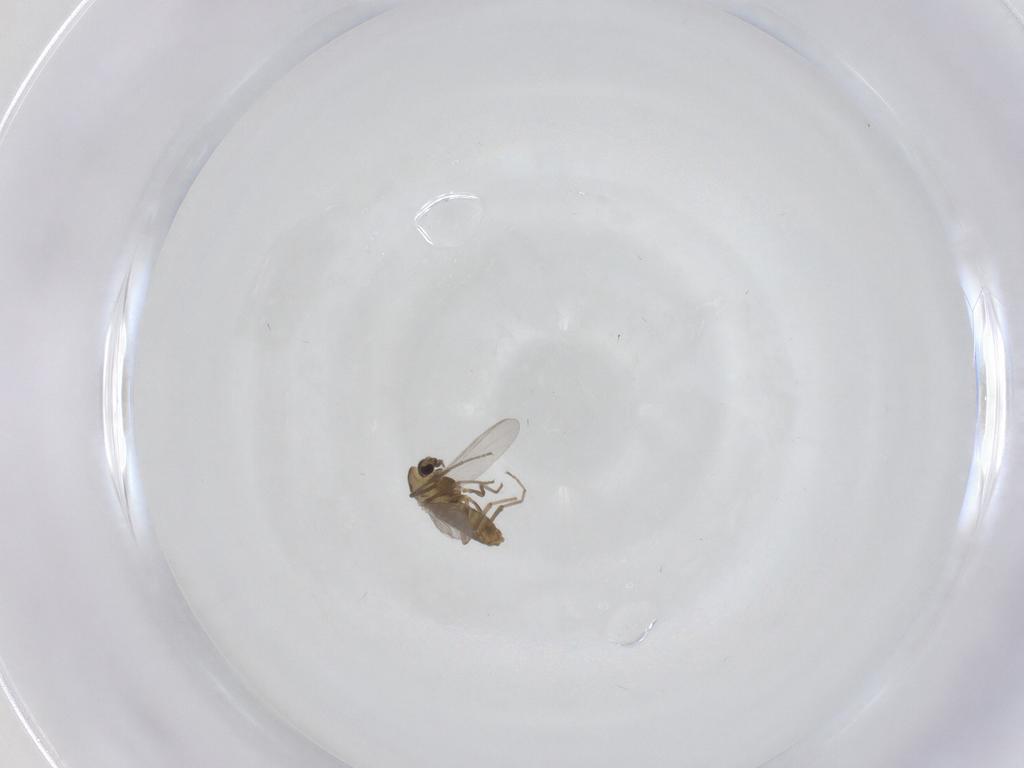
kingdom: Animalia
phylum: Arthropoda
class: Insecta
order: Diptera
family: Chironomidae
